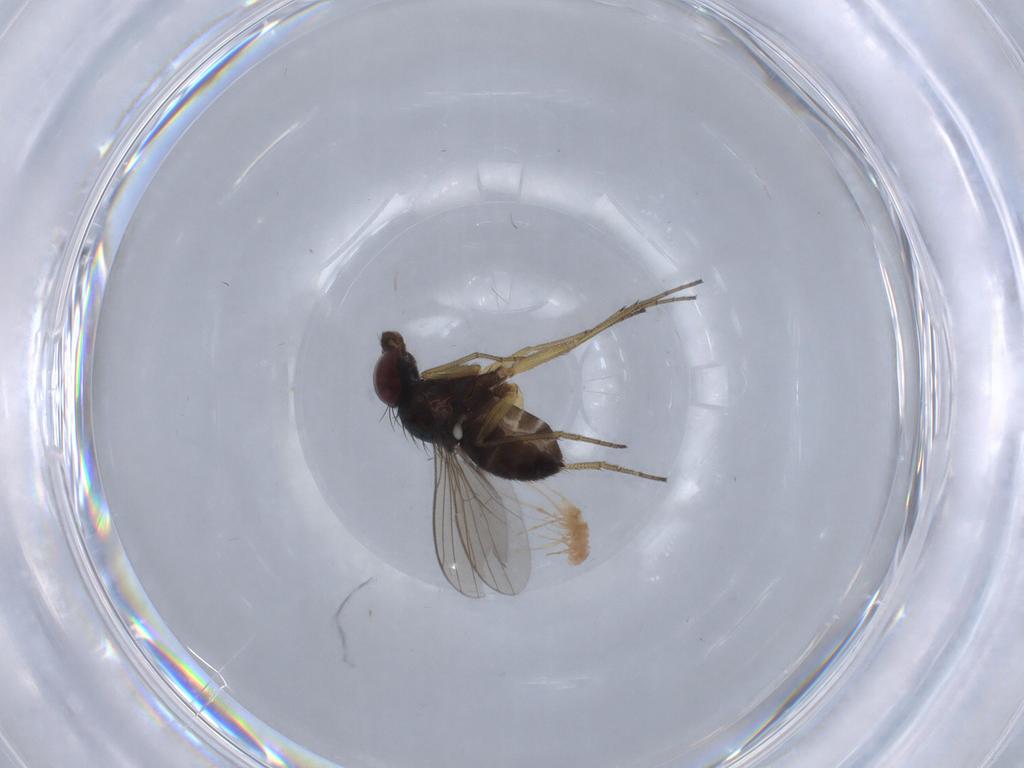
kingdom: Animalia
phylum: Arthropoda
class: Insecta
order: Diptera
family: Dolichopodidae
